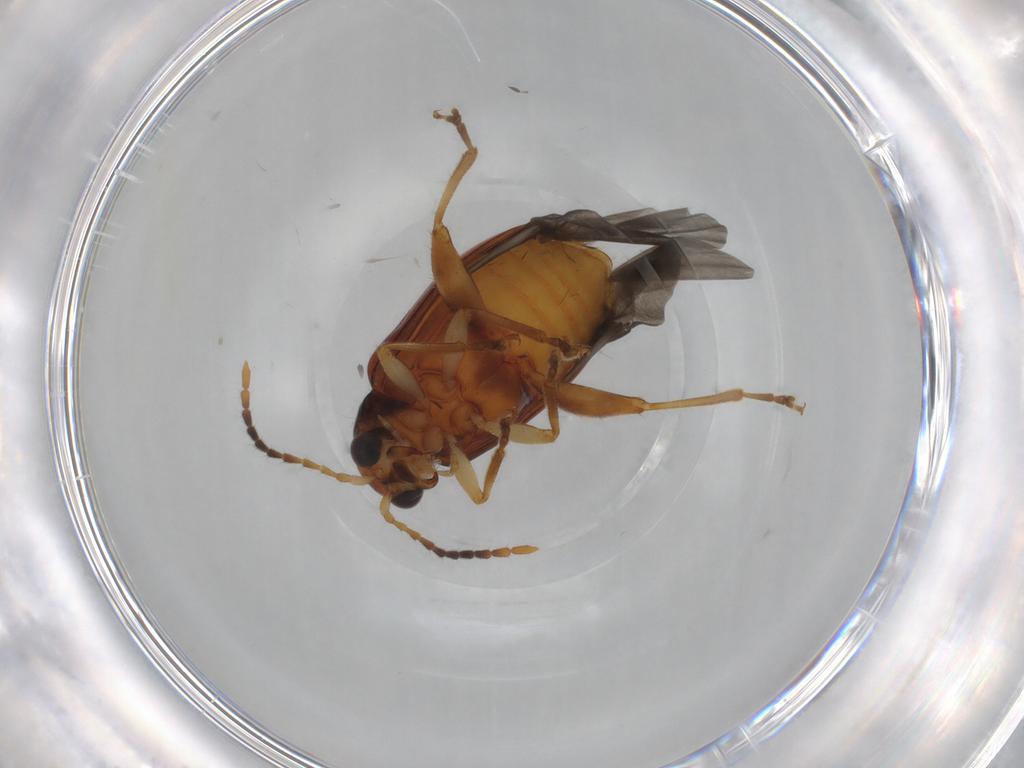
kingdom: Animalia
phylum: Arthropoda
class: Insecta
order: Coleoptera
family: Chrysomelidae
